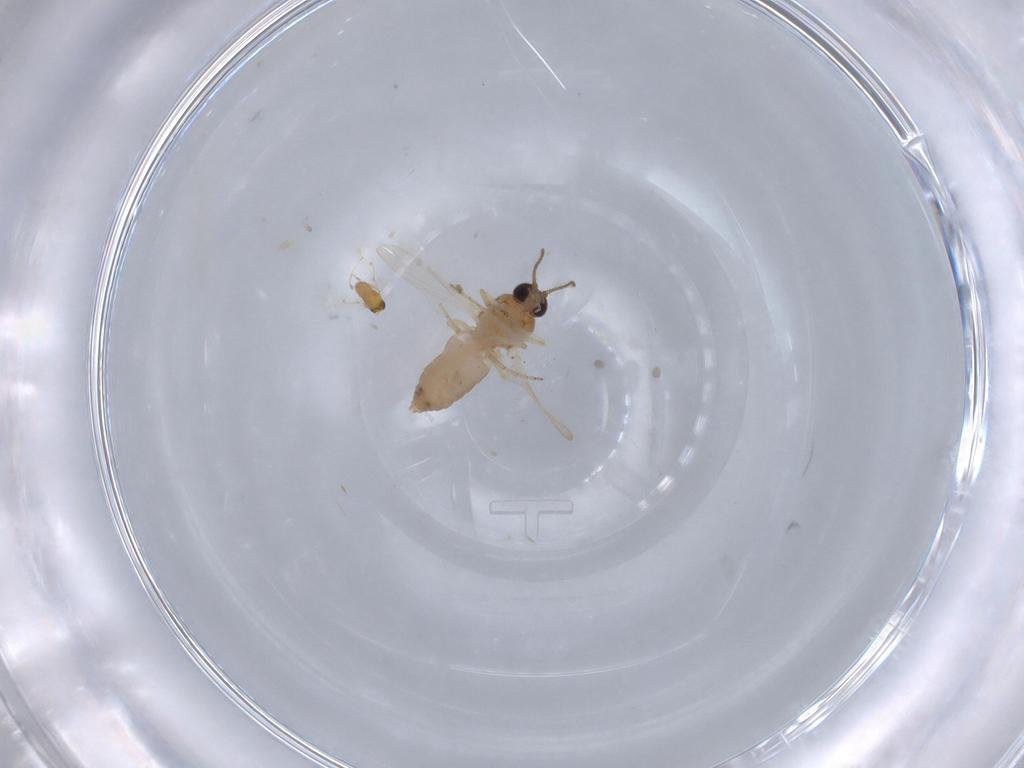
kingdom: Animalia
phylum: Arthropoda
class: Insecta
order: Diptera
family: Ceratopogonidae
